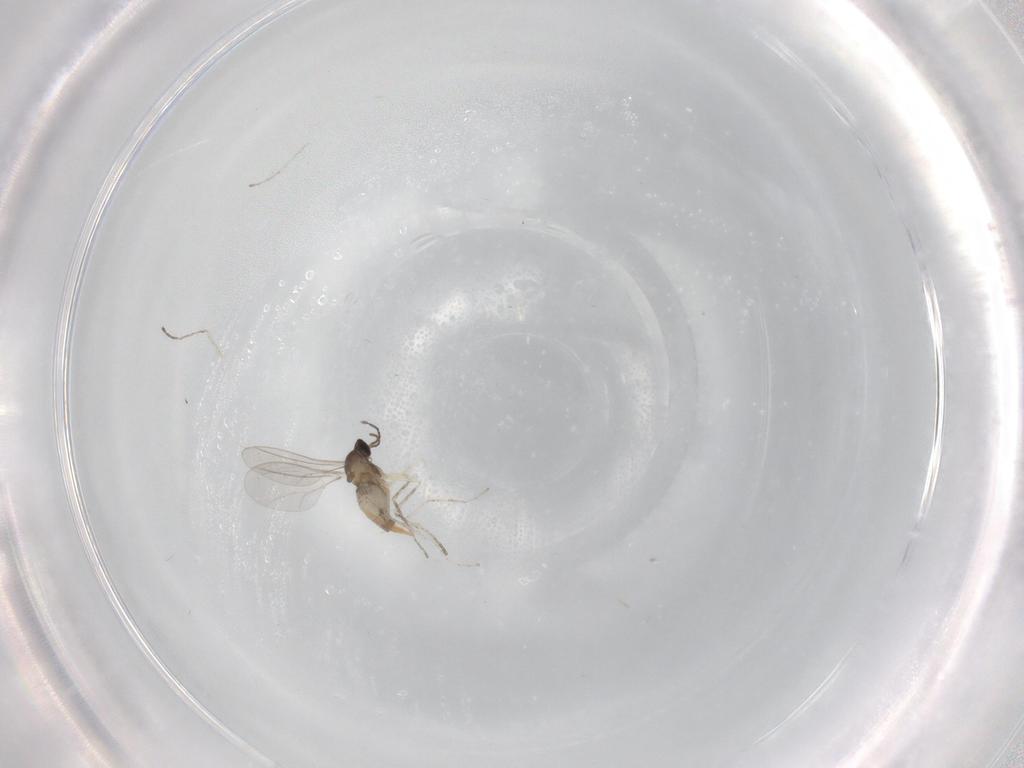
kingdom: Animalia
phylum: Arthropoda
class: Insecta
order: Diptera
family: Cecidomyiidae
